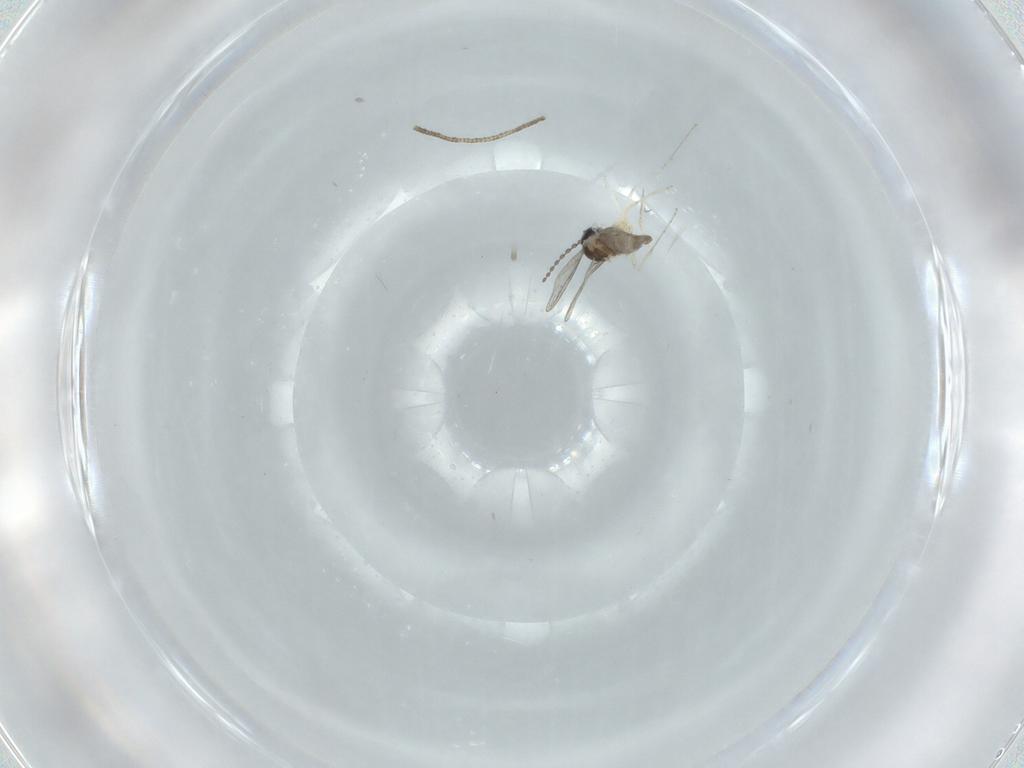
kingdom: Animalia
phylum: Arthropoda
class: Insecta
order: Diptera
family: Cecidomyiidae
